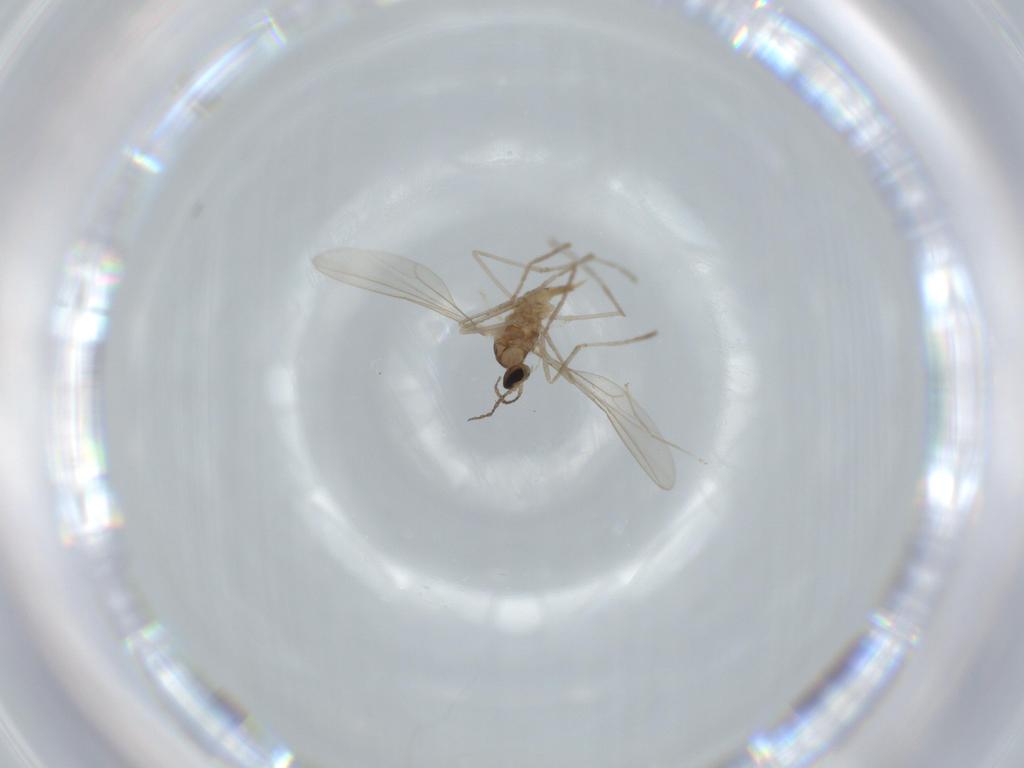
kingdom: Animalia
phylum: Arthropoda
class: Insecta
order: Diptera
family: Cecidomyiidae
